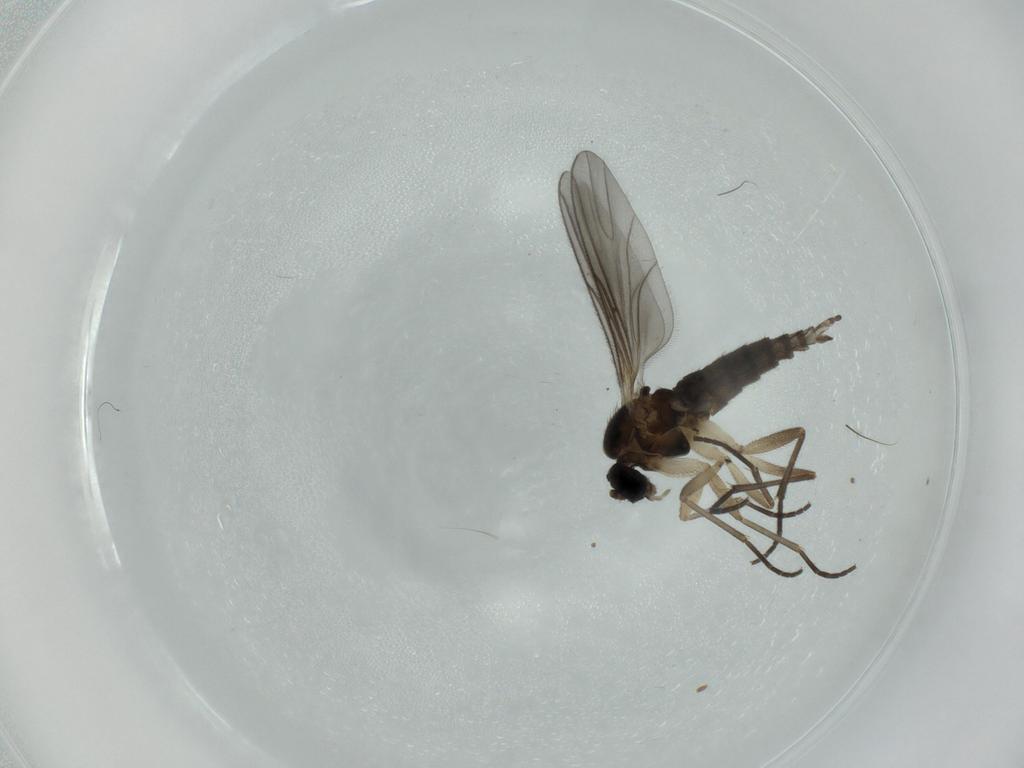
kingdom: Animalia
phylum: Arthropoda
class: Insecta
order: Diptera
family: Sciaridae
